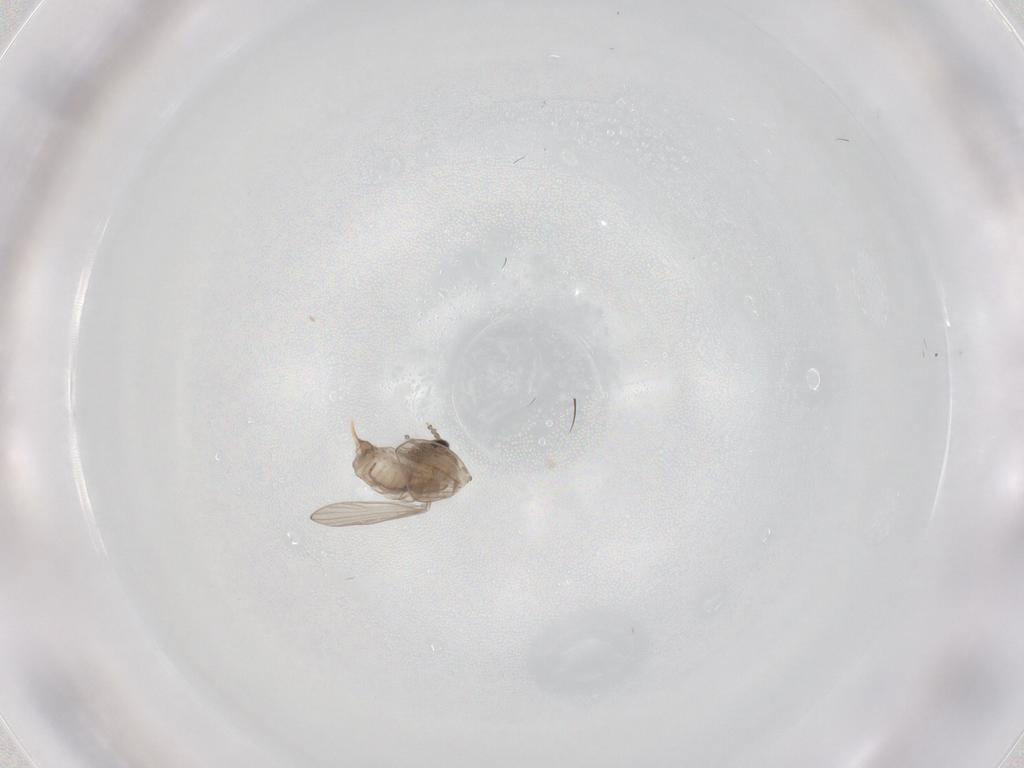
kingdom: Animalia
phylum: Arthropoda
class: Insecta
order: Diptera
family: Psychodidae
